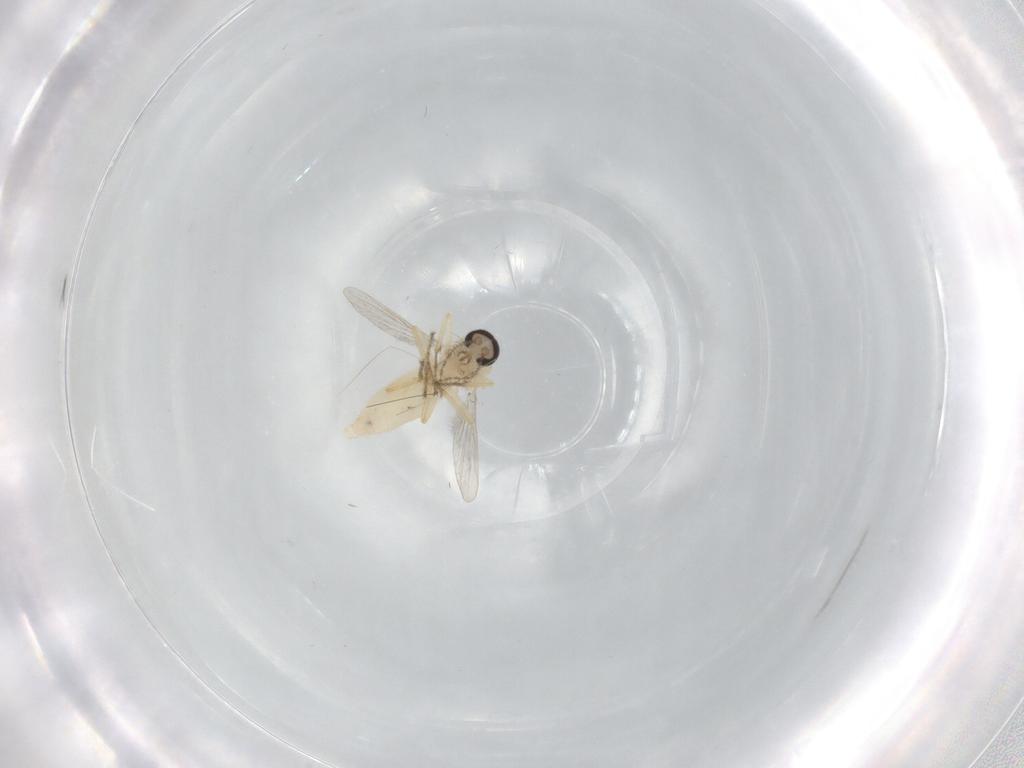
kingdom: Animalia
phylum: Arthropoda
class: Insecta
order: Diptera
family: Ceratopogonidae
